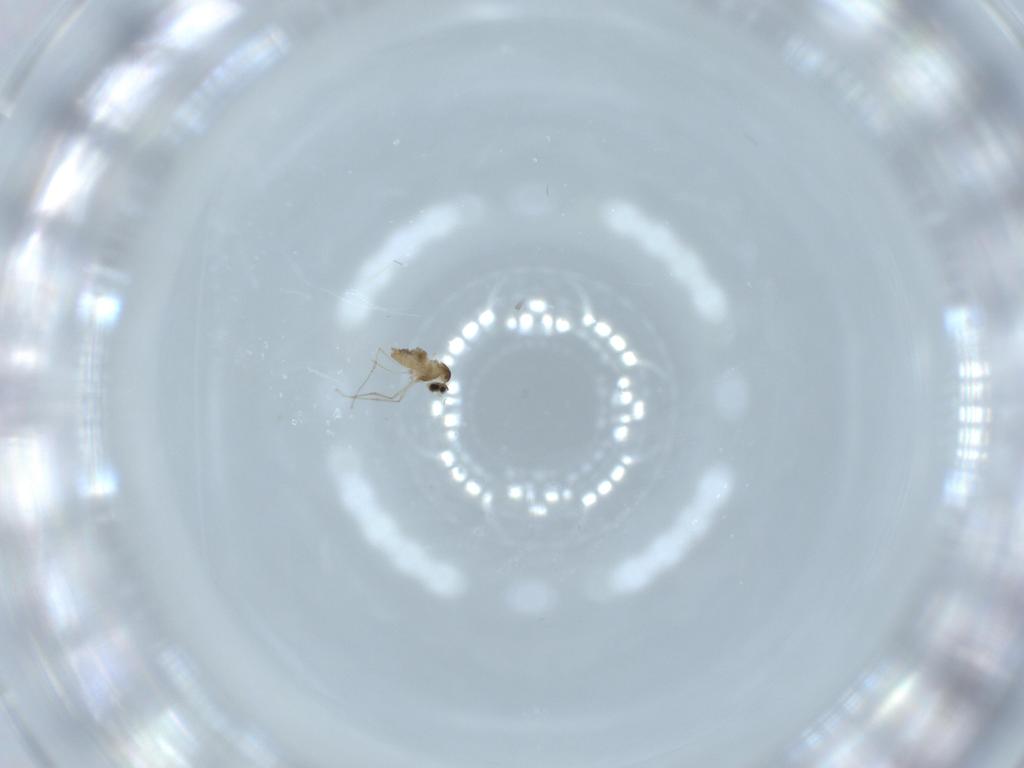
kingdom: Animalia
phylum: Arthropoda
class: Insecta
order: Diptera
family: Cecidomyiidae
